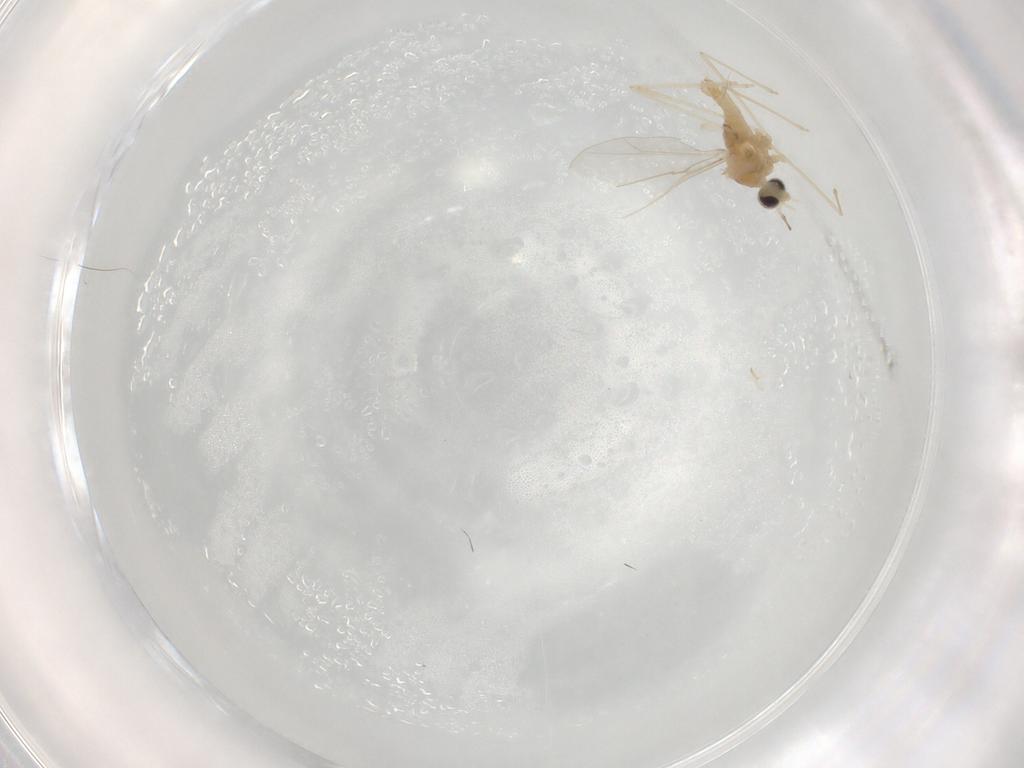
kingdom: Animalia
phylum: Arthropoda
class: Insecta
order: Diptera
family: Cecidomyiidae
